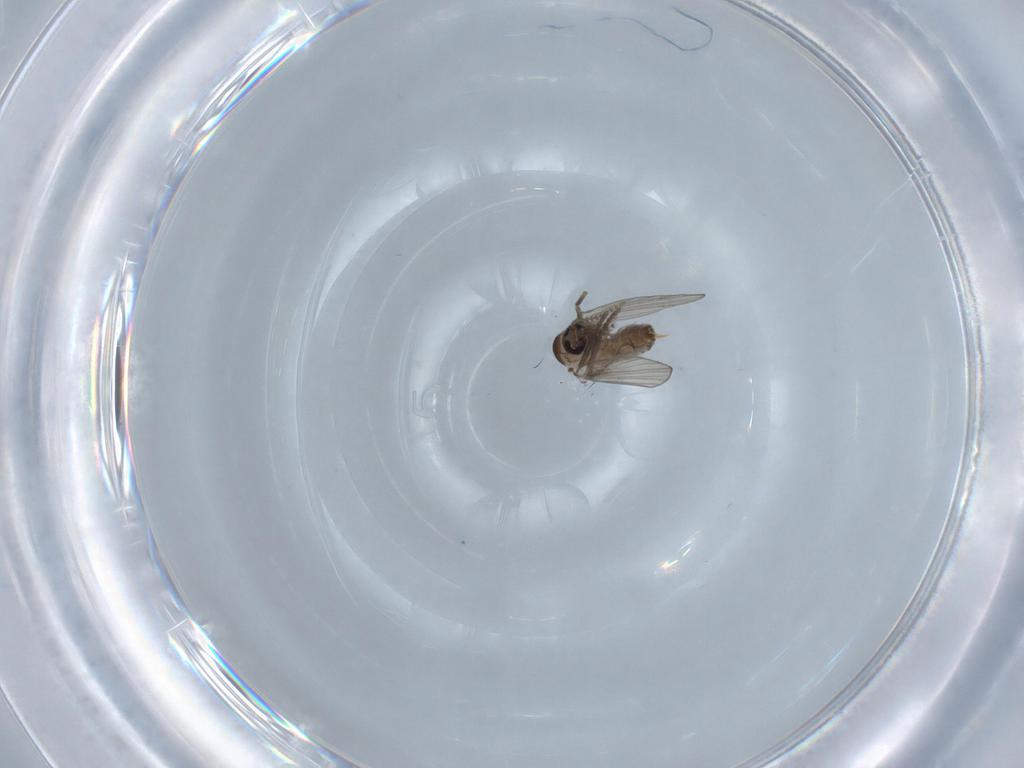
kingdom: Animalia
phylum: Arthropoda
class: Insecta
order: Diptera
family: Psychodidae
